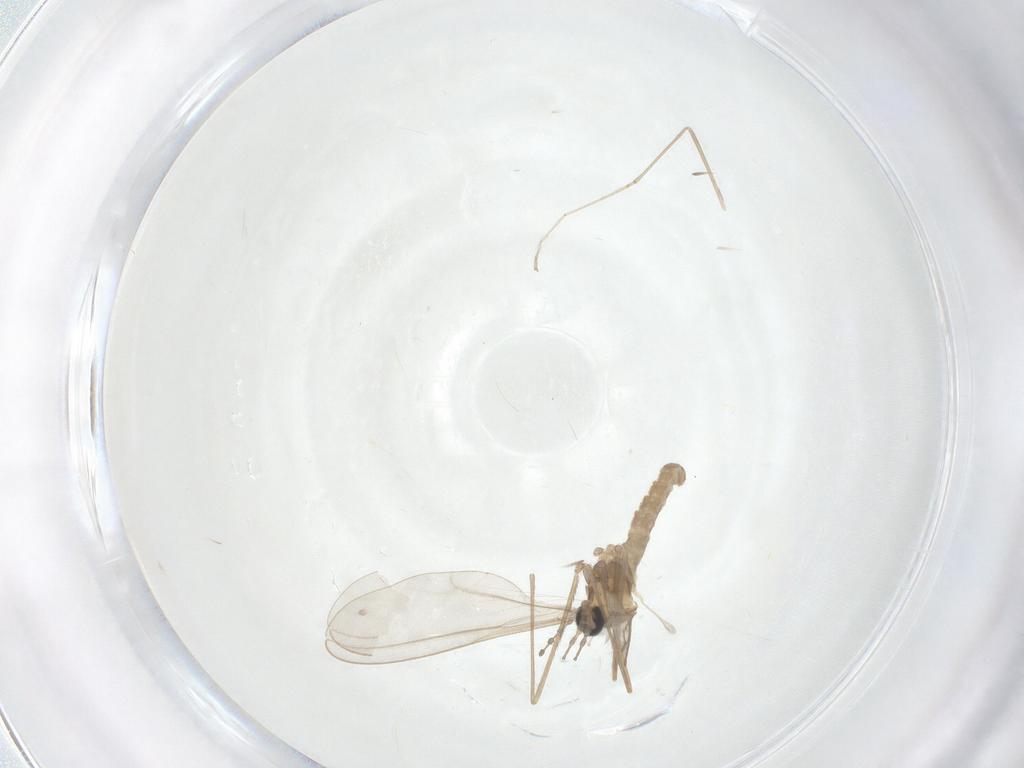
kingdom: Animalia
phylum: Arthropoda
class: Insecta
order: Diptera
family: Cecidomyiidae
